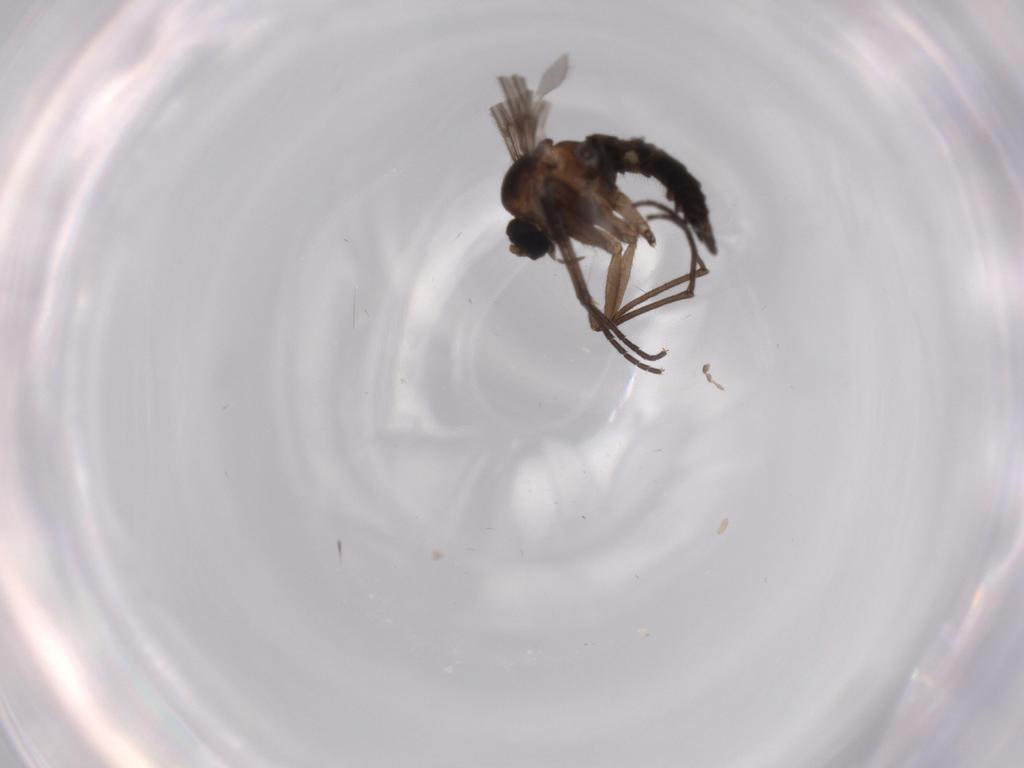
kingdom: Animalia
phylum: Arthropoda
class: Insecta
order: Diptera
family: Sciaridae
